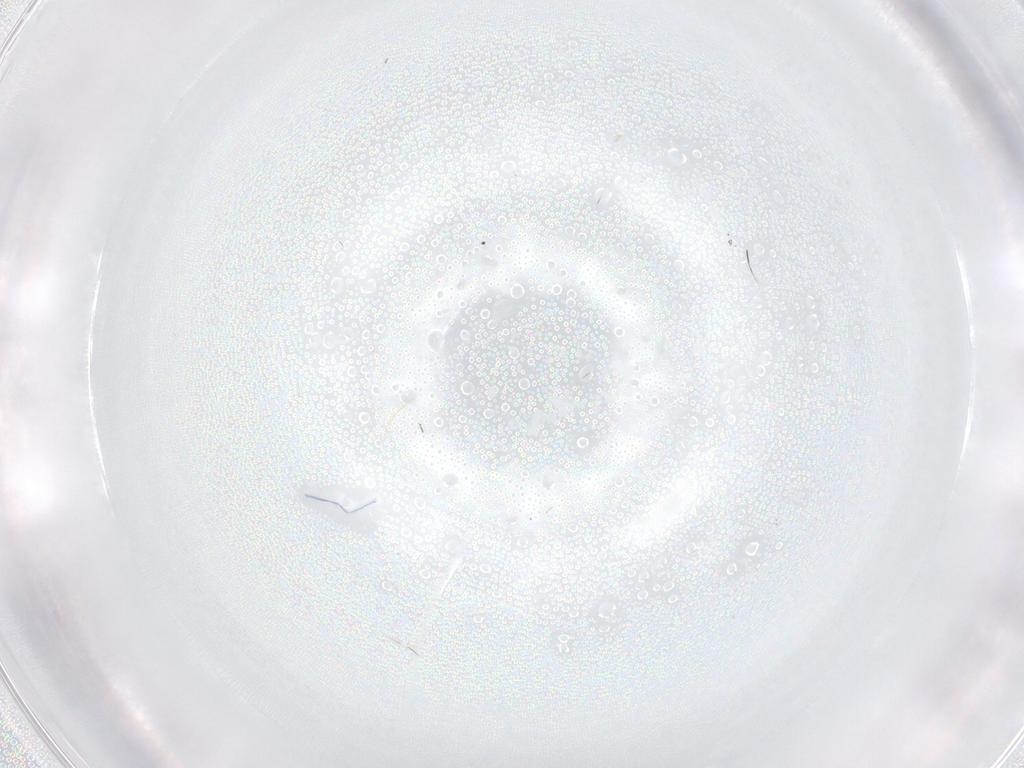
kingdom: Animalia
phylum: Arthropoda
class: Insecta
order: Diptera
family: Cecidomyiidae
